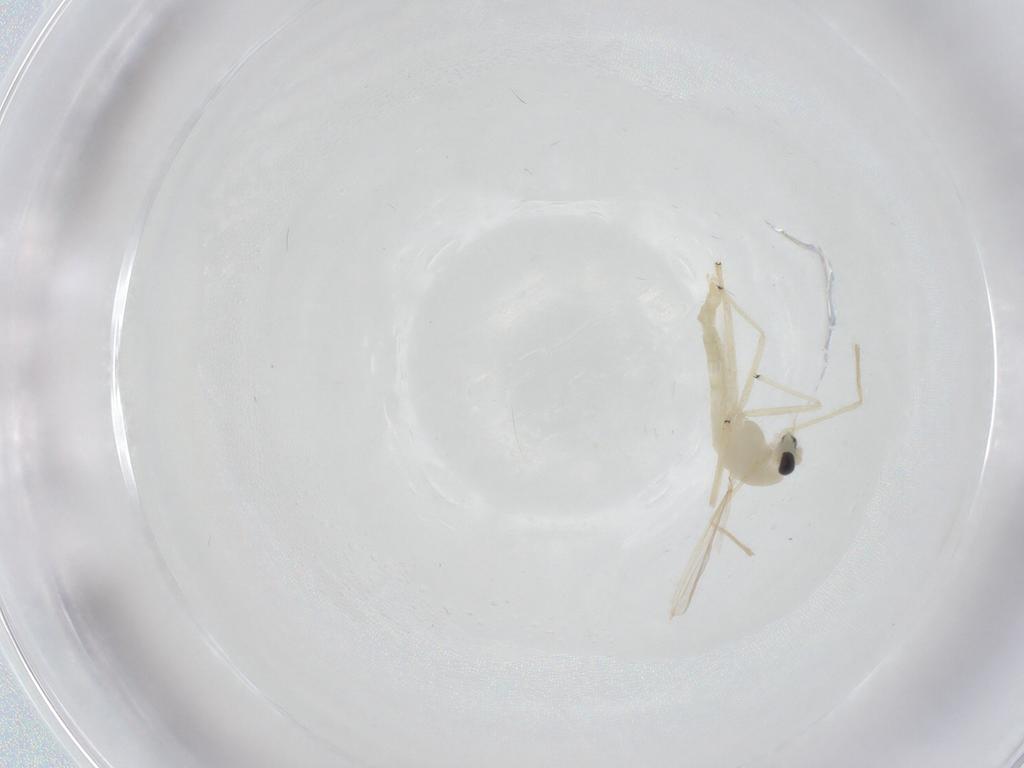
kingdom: Animalia
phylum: Arthropoda
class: Insecta
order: Diptera
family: Chironomidae
